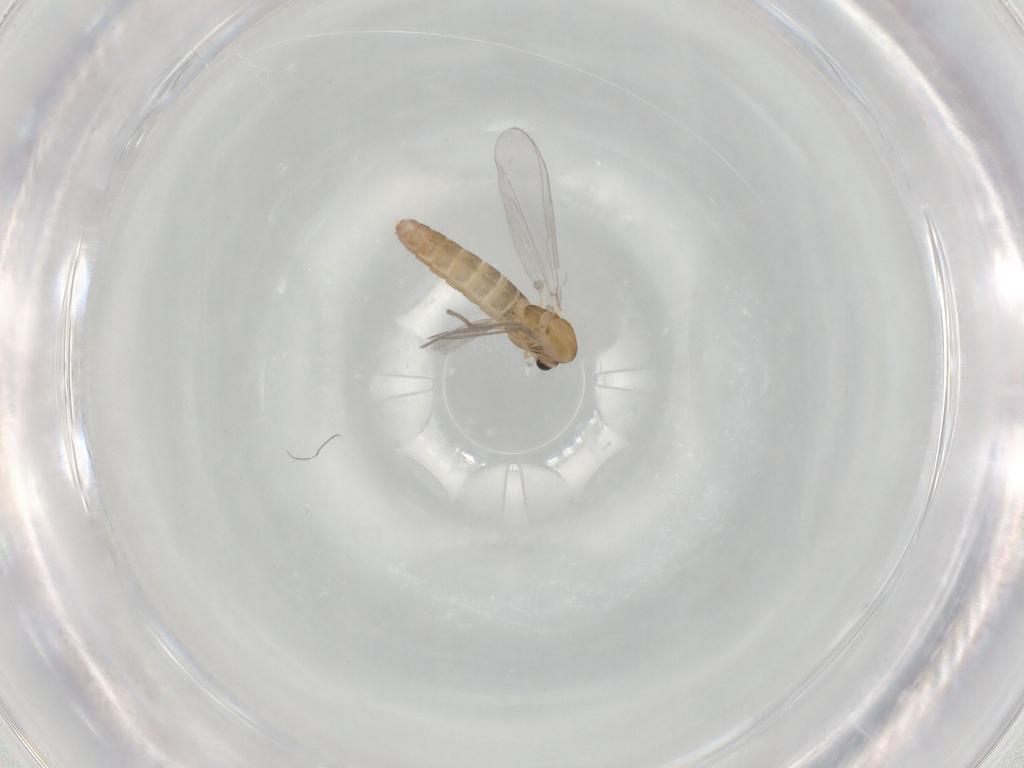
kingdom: Animalia
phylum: Arthropoda
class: Insecta
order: Diptera
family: Chironomidae
